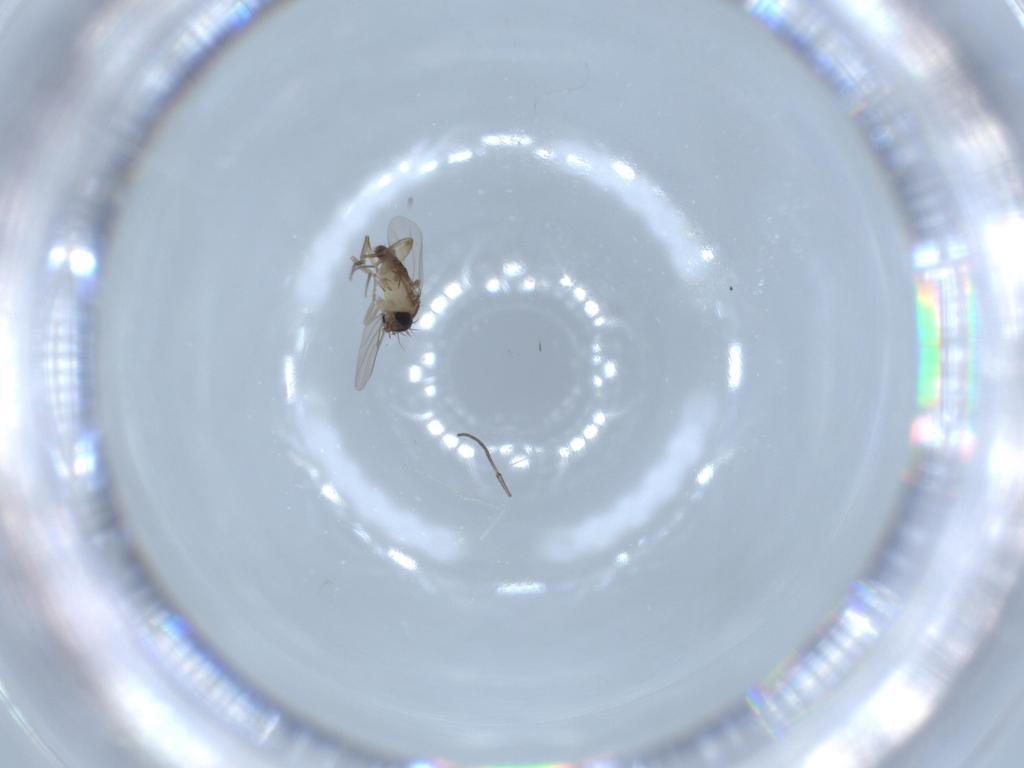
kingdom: Animalia
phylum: Arthropoda
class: Insecta
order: Diptera
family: Phoridae
